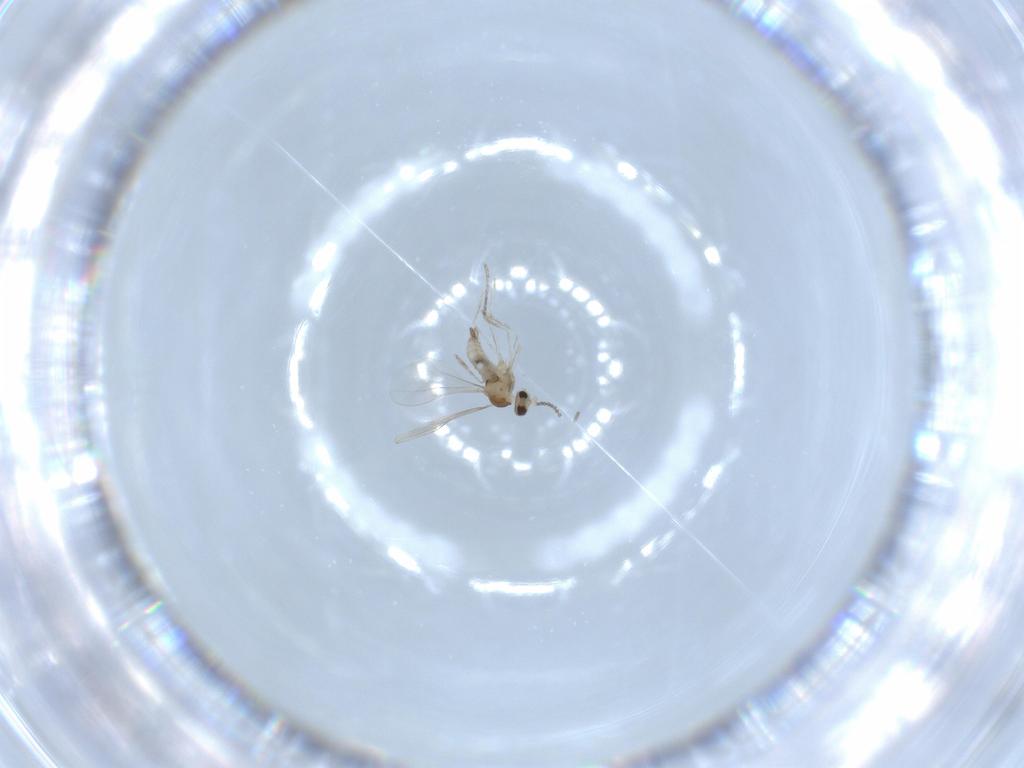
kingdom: Animalia
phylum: Arthropoda
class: Insecta
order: Diptera
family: Cecidomyiidae
